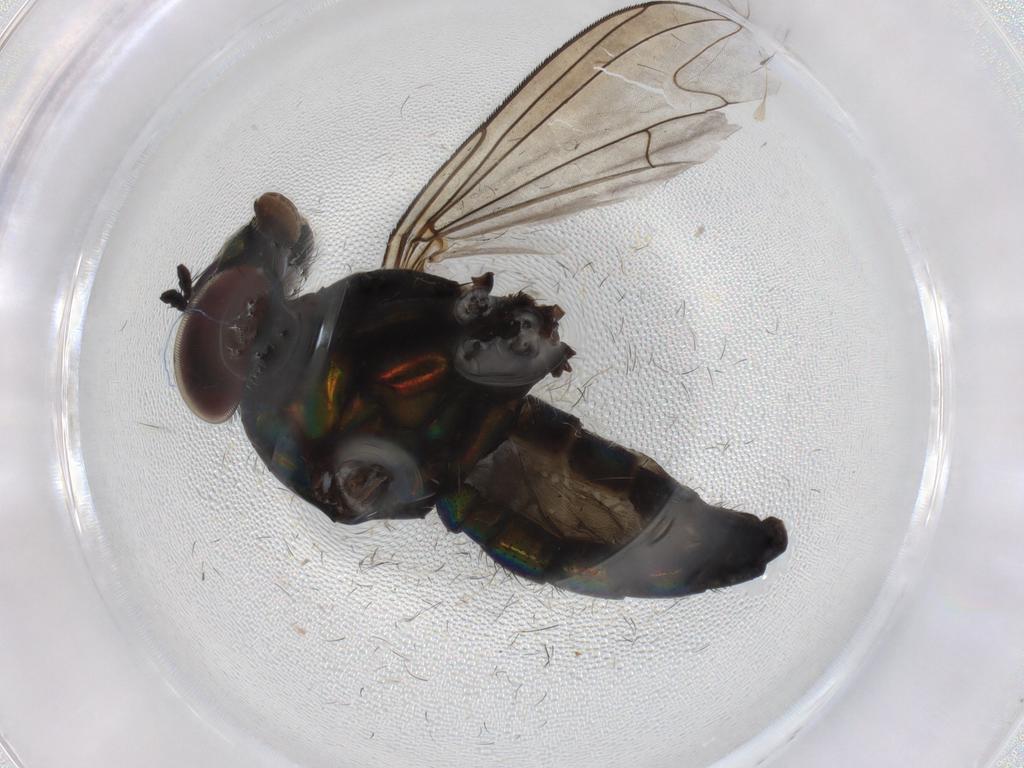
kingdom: Animalia
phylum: Arthropoda
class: Insecta
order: Diptera
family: Dolichopodidae
